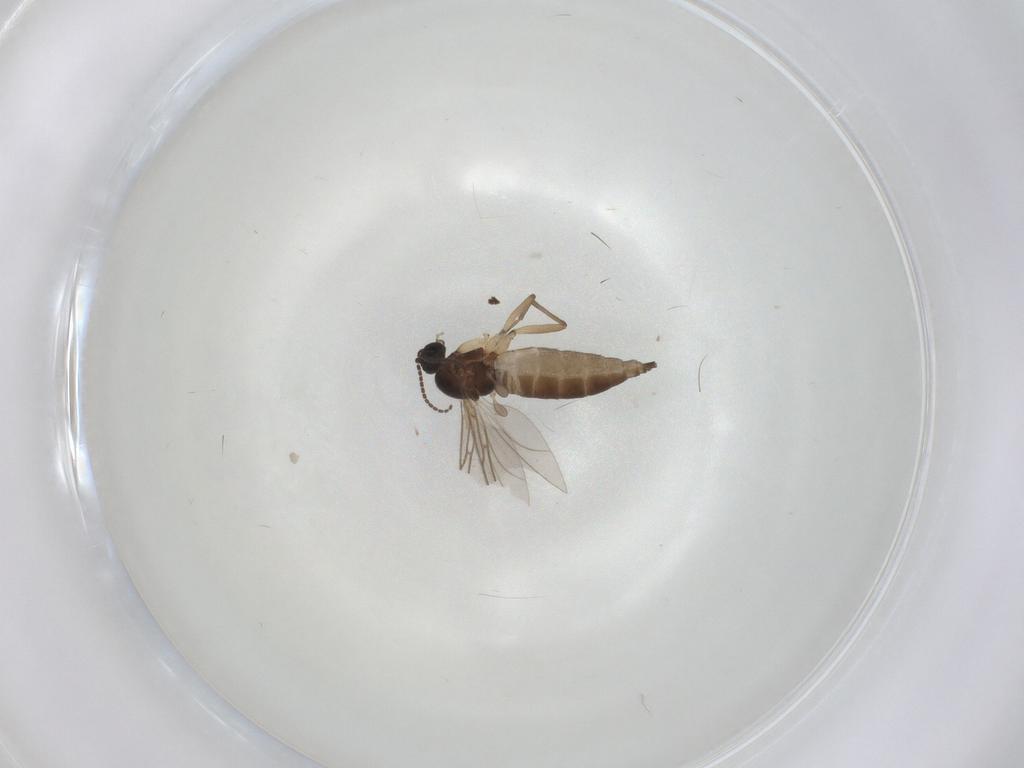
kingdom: Animalia
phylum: Arthropoda
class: Insecta
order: Diptera
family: Sciaridae
